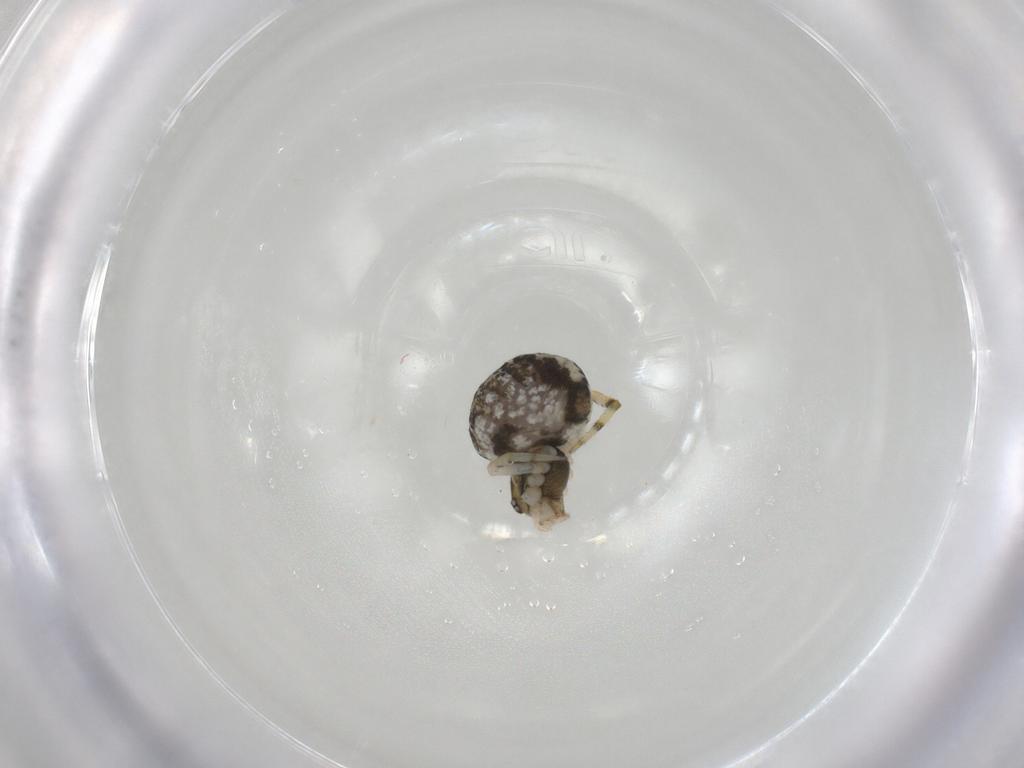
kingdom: Animalia
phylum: Arthropoda
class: Arachnida
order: Araneae
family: Theridiidae
